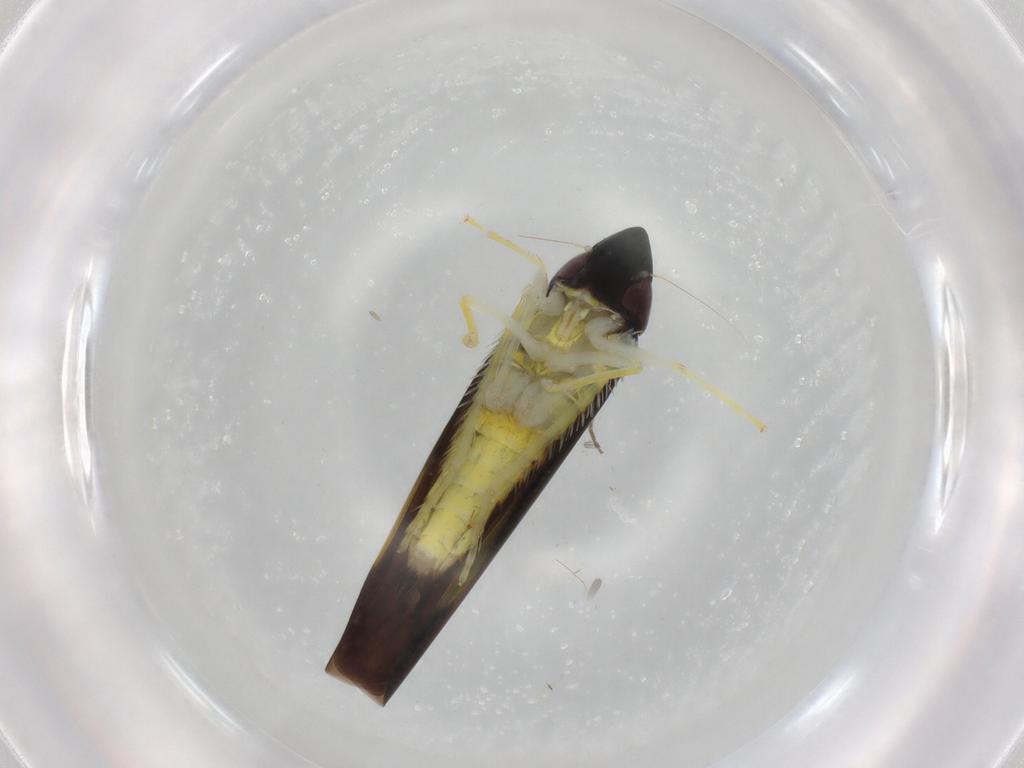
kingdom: Animalia
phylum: Arthropoda
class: Insecta
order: Hemiptera
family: Cicadellidae
